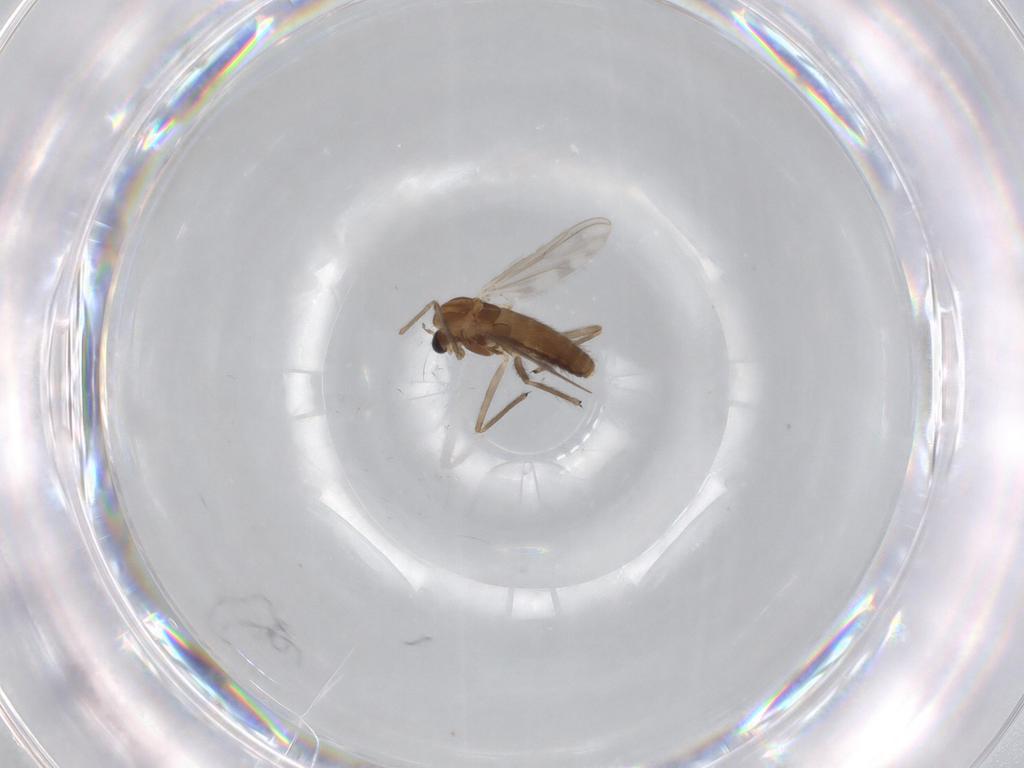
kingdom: Animalia
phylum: Arthropoda
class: Insecta
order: Diptera
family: Chironomidae
